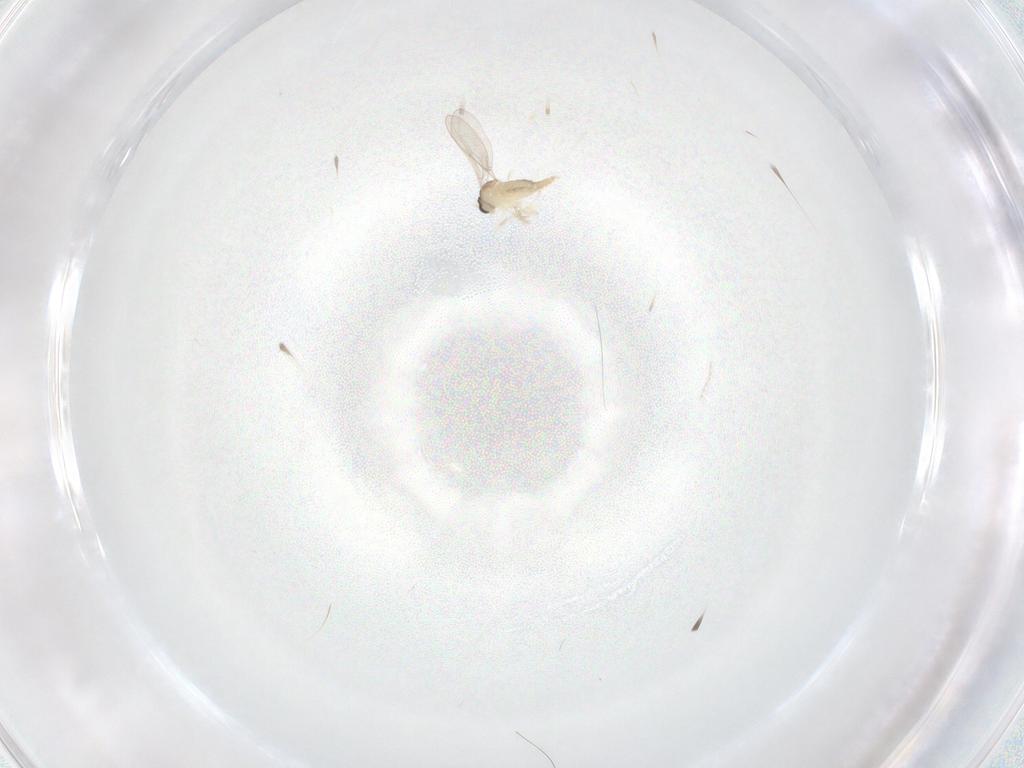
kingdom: Animalia
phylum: Arthropoda
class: Insecta
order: Diptera
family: Cecidomyiidae
